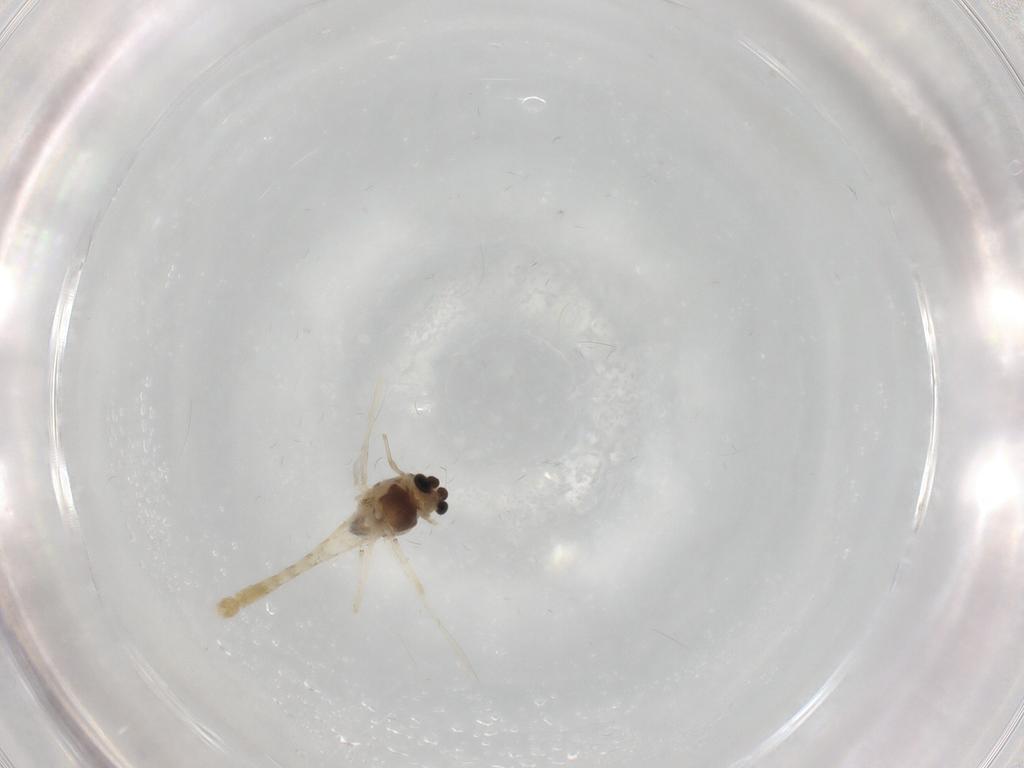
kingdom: Animalia
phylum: Arthropoda
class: Insecta
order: Diptera
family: Chironomidae
